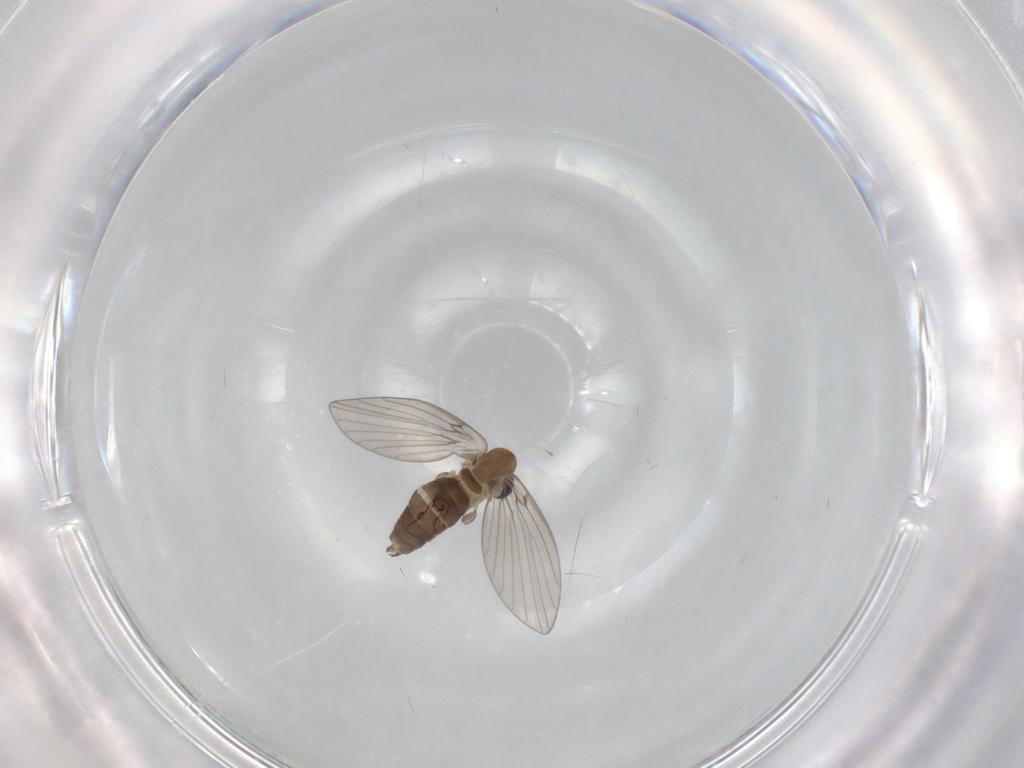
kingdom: Animalia
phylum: Arthropoda
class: Insecta
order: Diptera
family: Psychodidae
